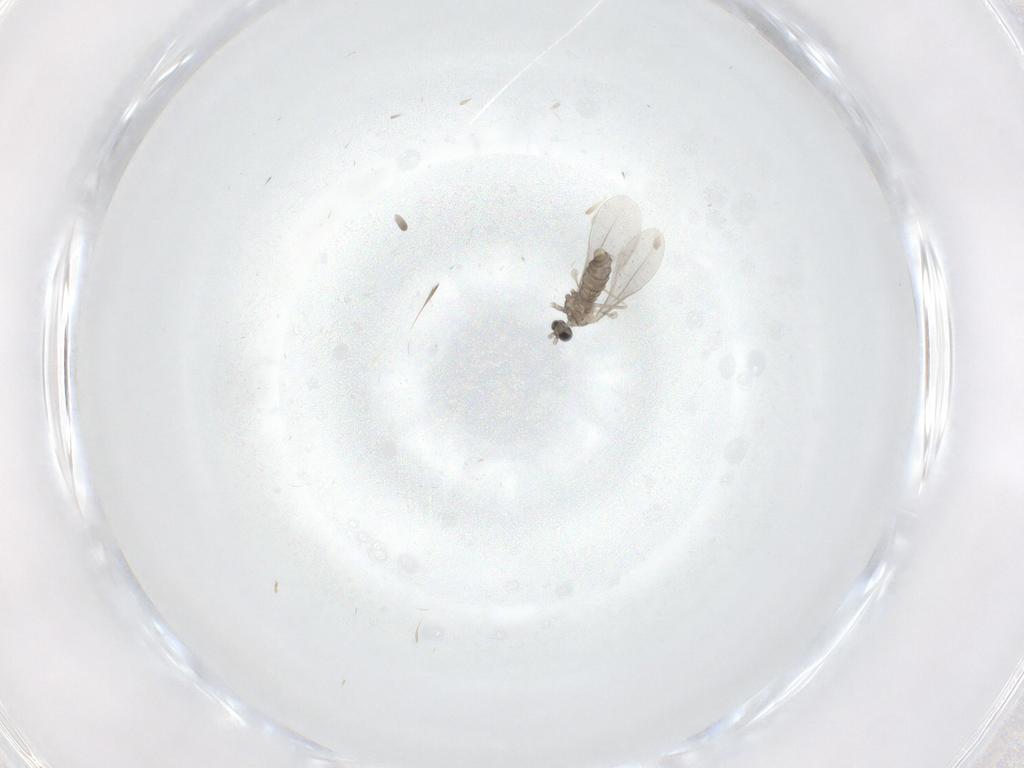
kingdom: Animalia
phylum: Arthropoda
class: Insecta
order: Diptera
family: Cecidomyiidae
